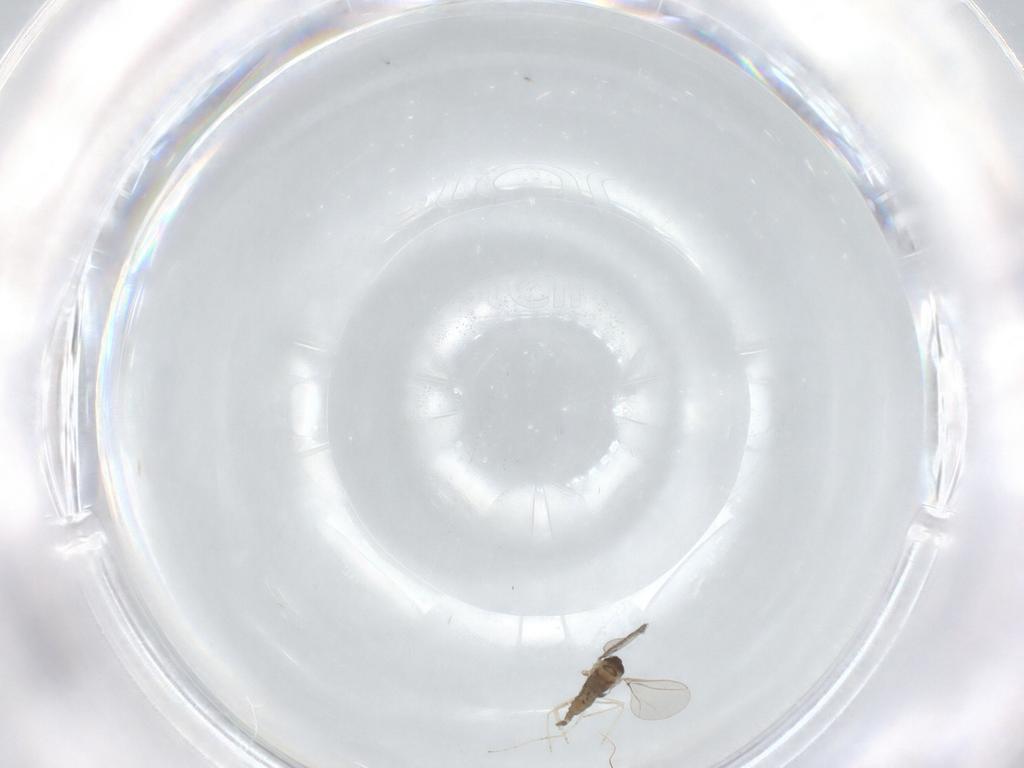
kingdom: Animalia
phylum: Arthropoda
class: Insecta
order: Diptera
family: Cecidomyiidae
